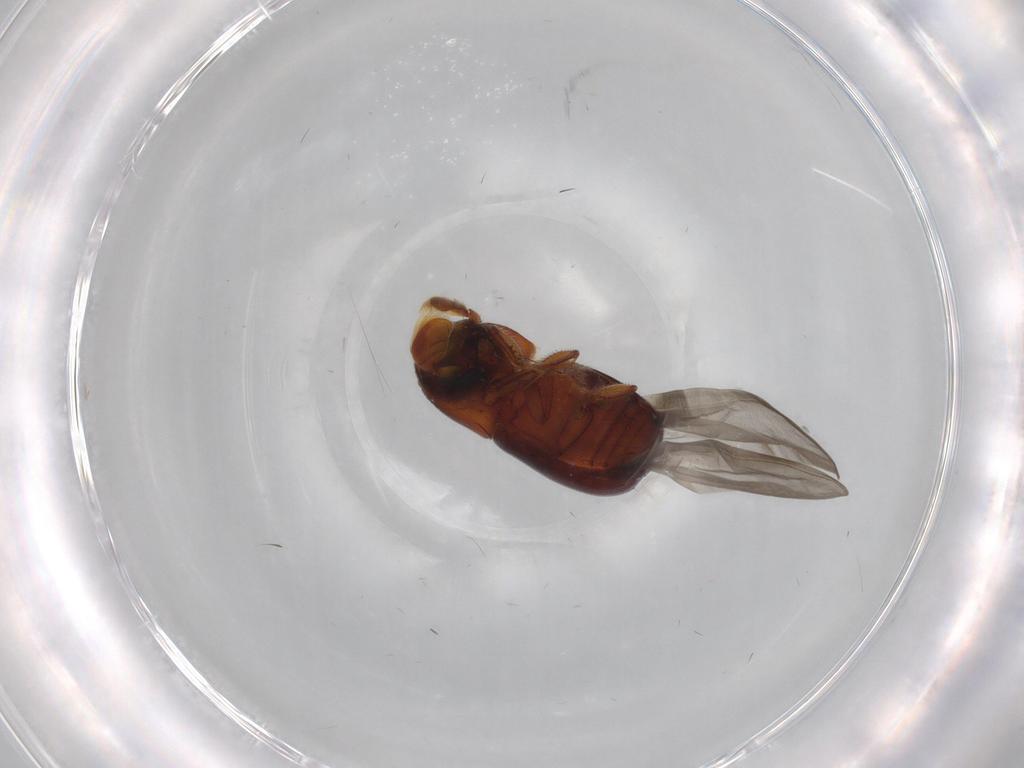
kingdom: Animalia
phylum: Arthropoda
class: Insecta
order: Coleoptera
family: Curculionidae
